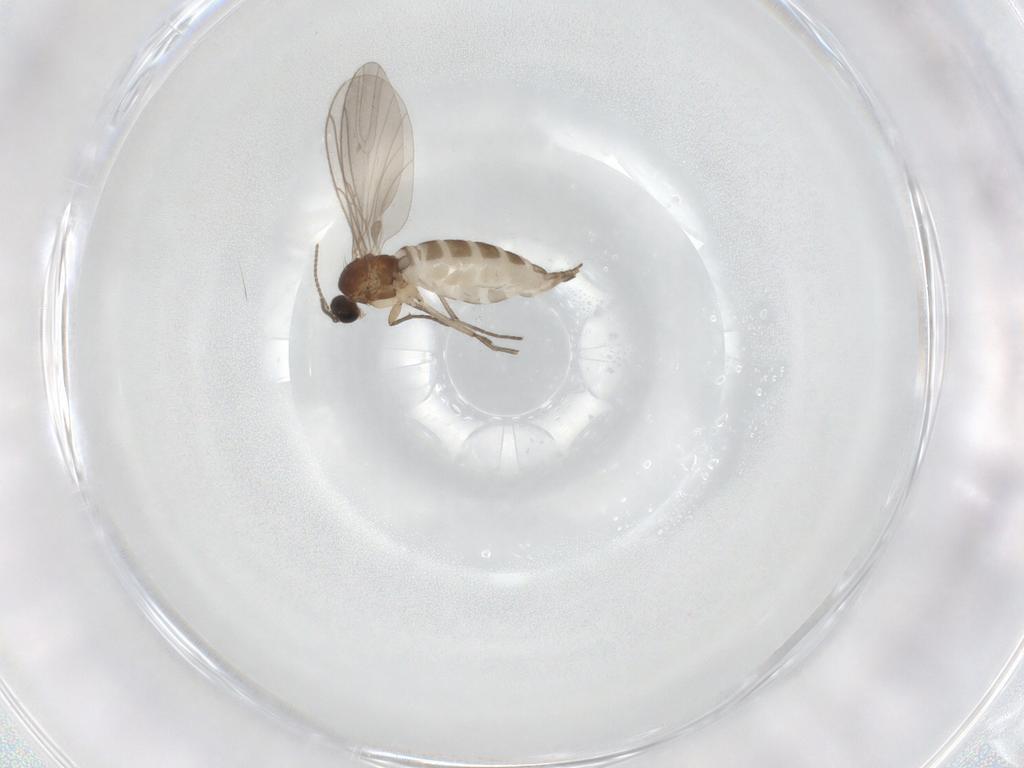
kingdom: Animalia
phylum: Arthropoda
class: Insecta
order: Diptera
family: Sciaridae
